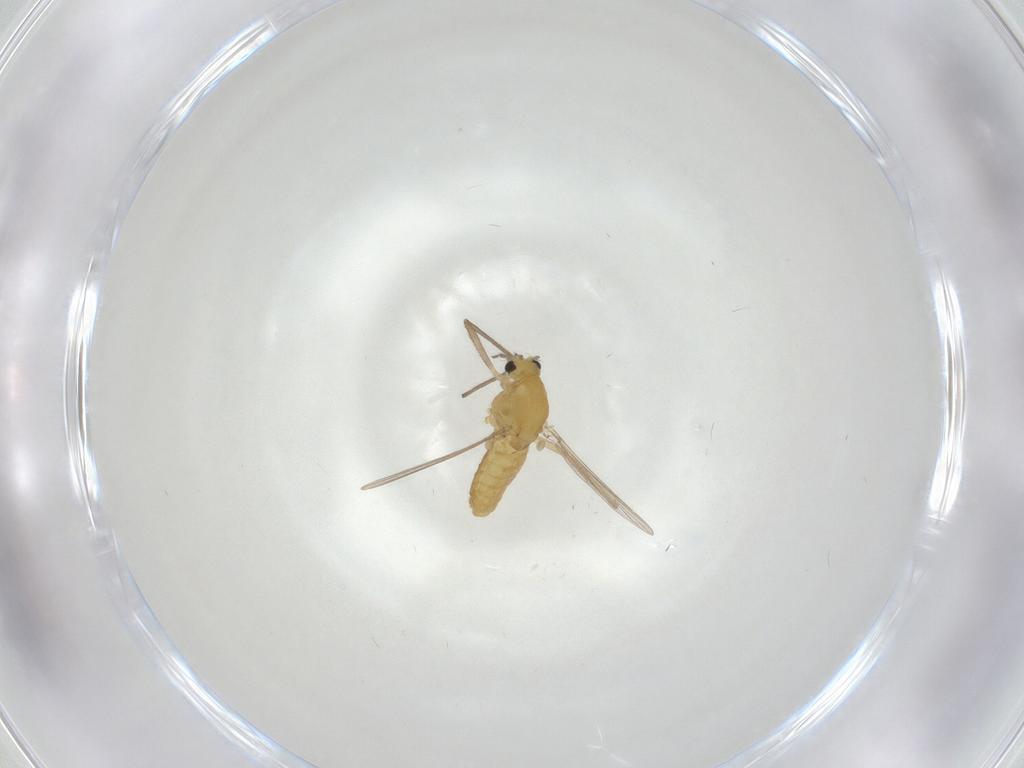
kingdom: Animalia
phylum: Arthropoda
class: Insecta
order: Diptera
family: Chironomidae
